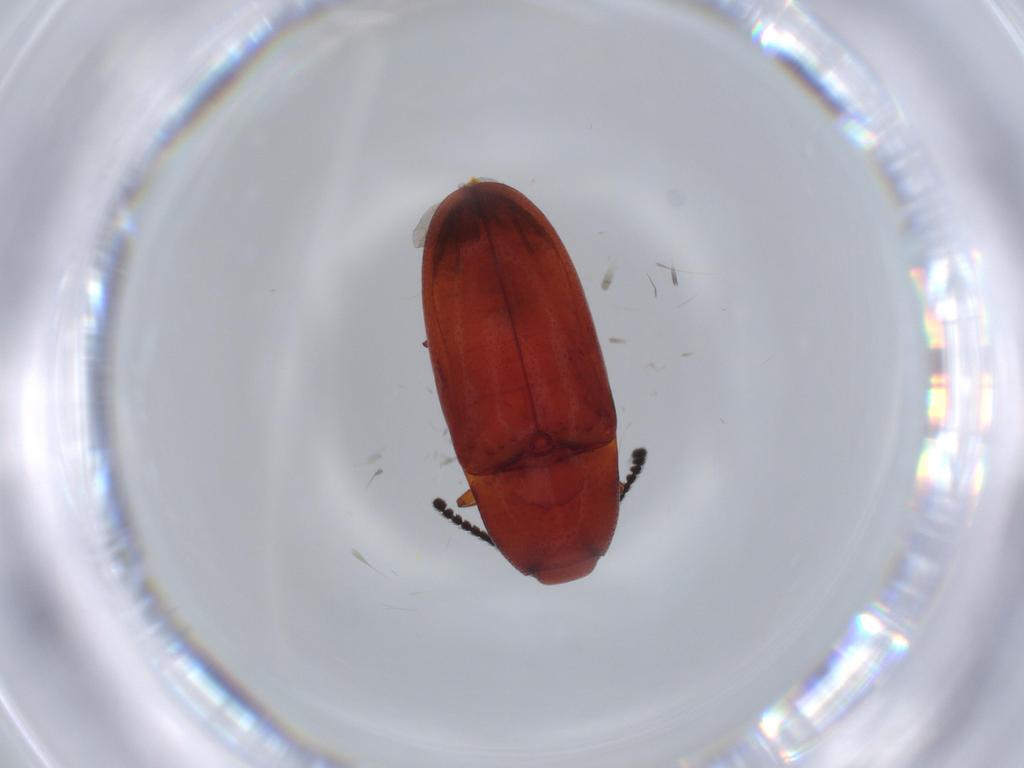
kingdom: Animalia
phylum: Arthropoda
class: Insecta
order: Coleoptera
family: Elateridae
